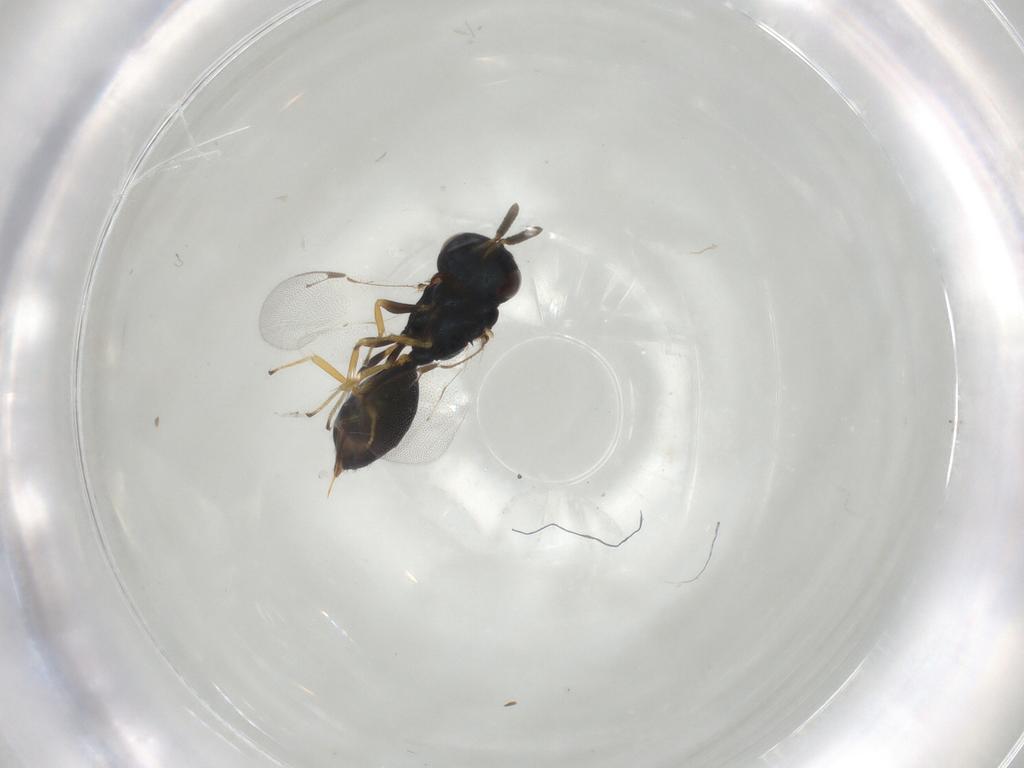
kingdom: Animalia
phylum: Arthropoda
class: Insecta
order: Hymenoptera
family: Pteromalidae
